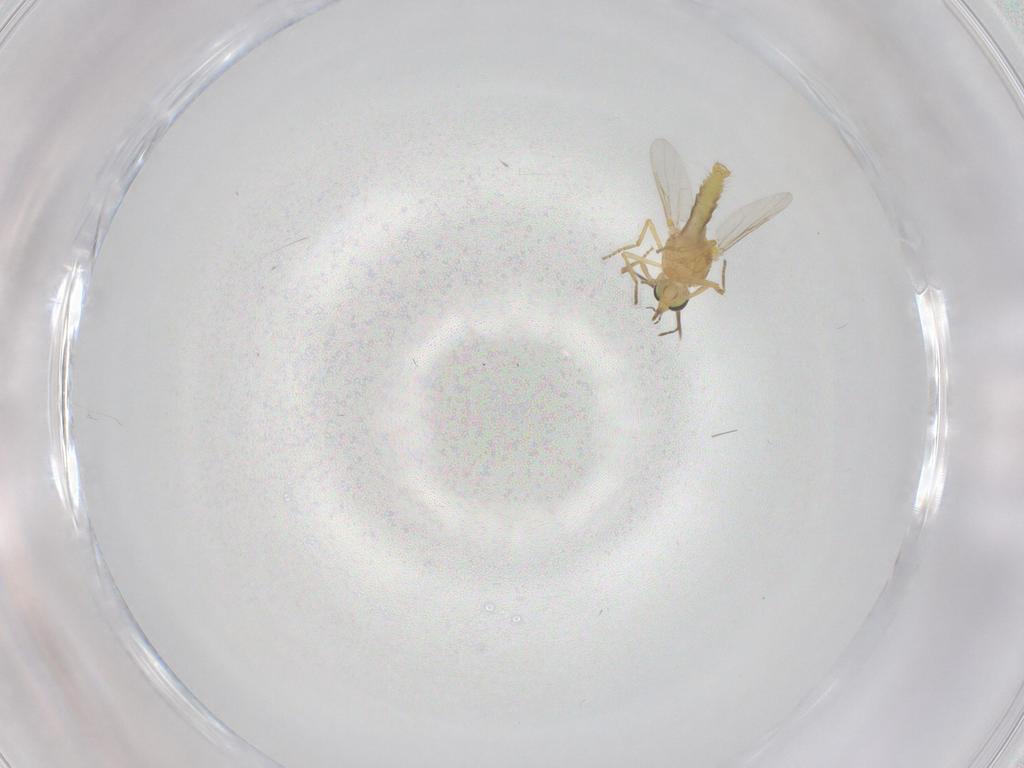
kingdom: Animalia
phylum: Arthropoda
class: Insecta
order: Diptera
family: Ceratopogonidae
